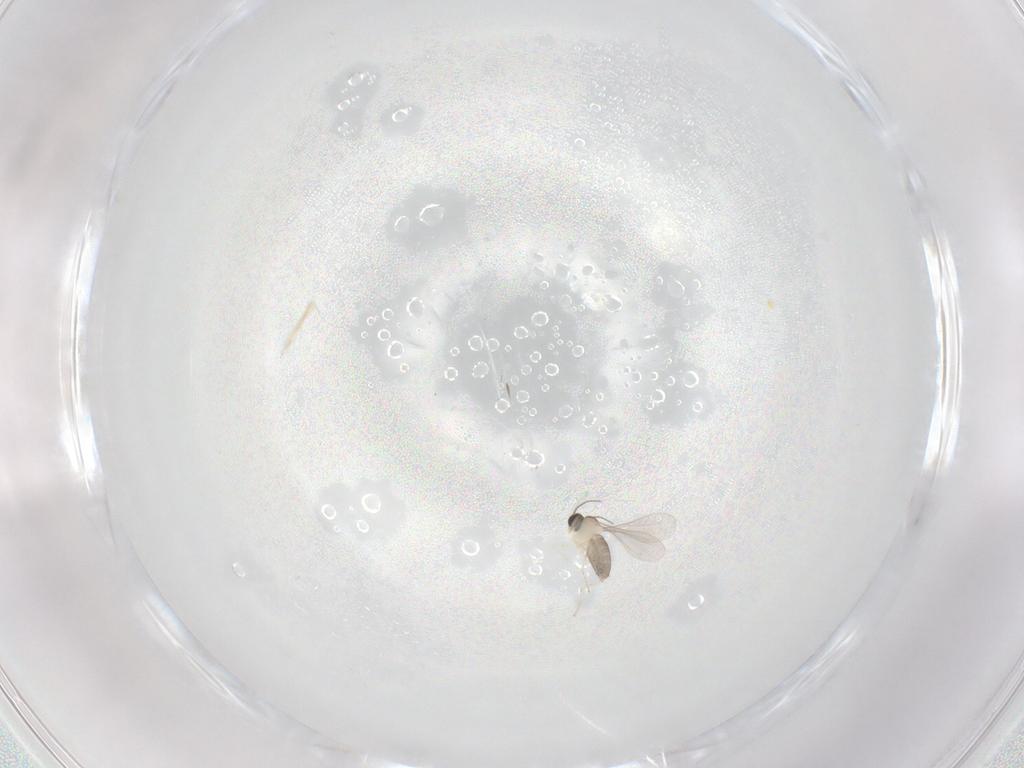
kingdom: Animalia
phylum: Arthropoda
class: Insecta
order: Diptera
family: Cecidomyiidae
